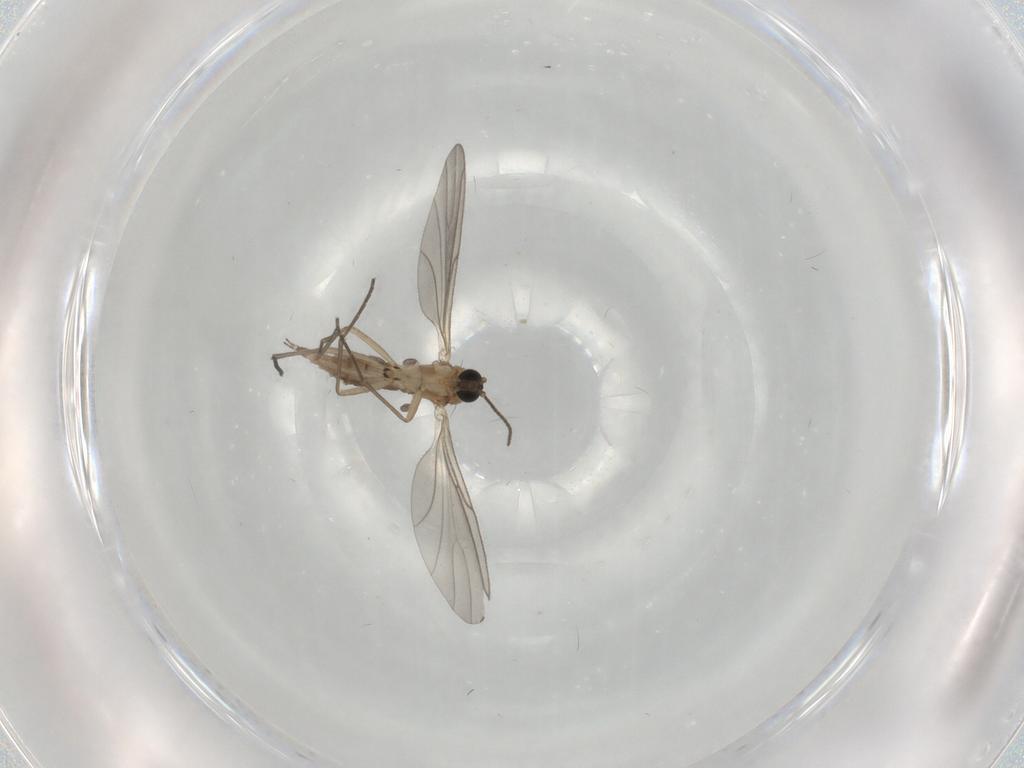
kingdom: Animalia
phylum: Arthropoda
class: Insecta
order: Diptera
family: Sciaridae
